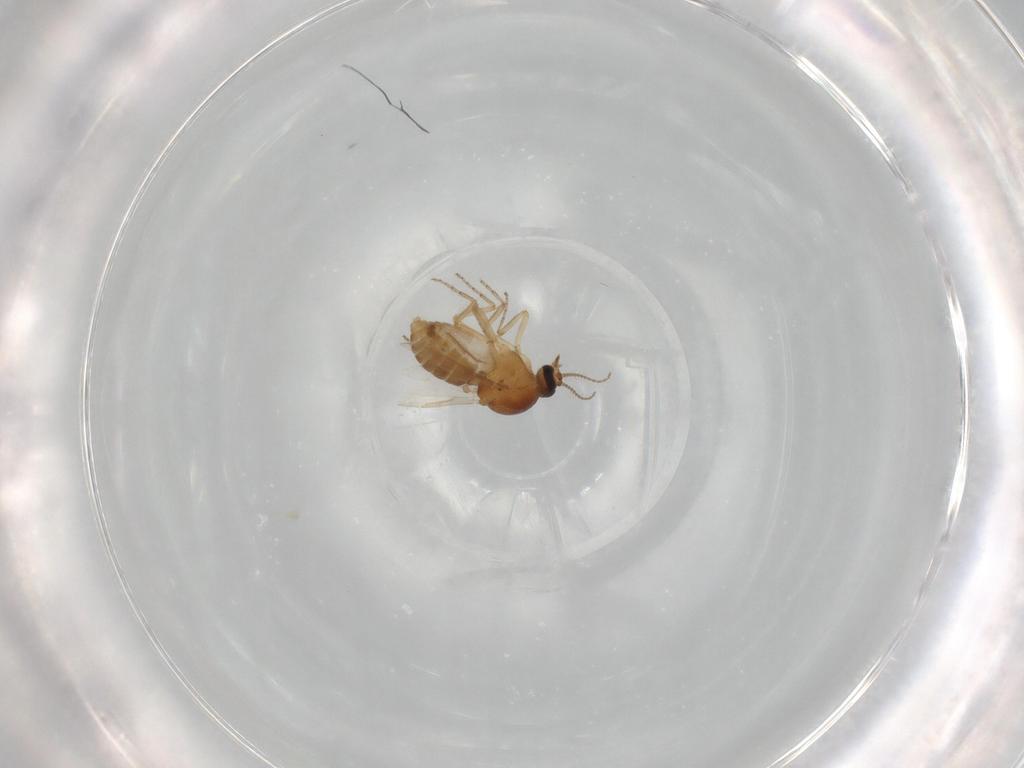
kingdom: Animalia
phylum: Arthropoda
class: Insecta
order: Diptera
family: Ceratopogonidae
